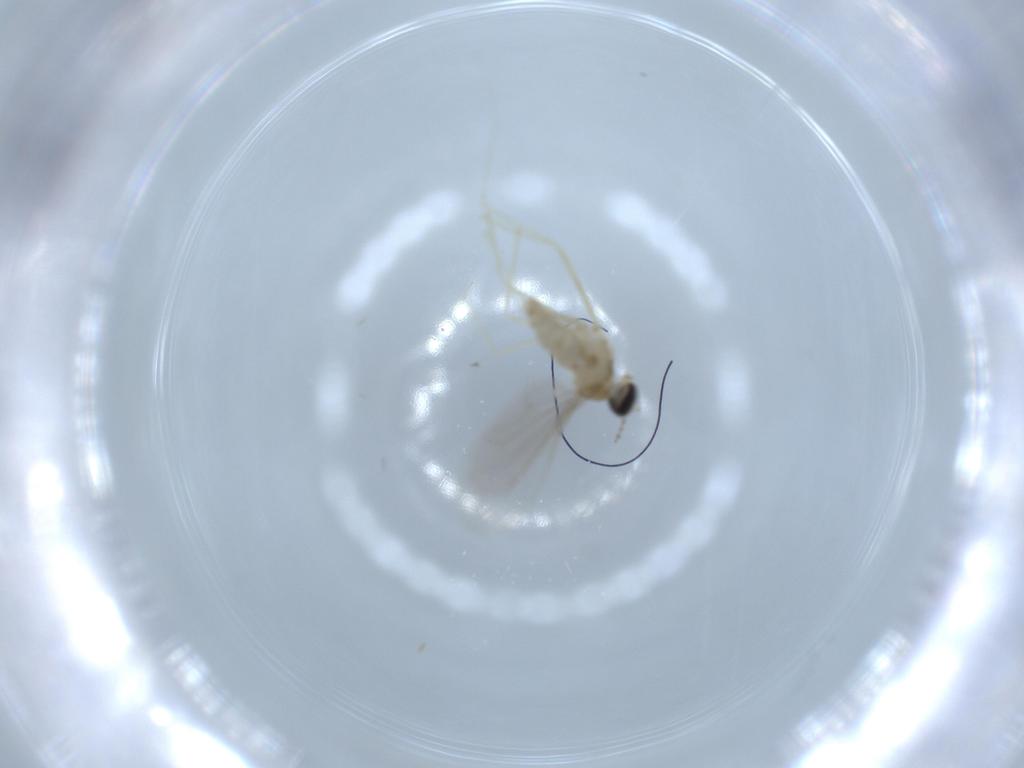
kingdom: Animalia
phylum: Arthropoda
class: Insecta
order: Diptera
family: Cecidomyiidae
